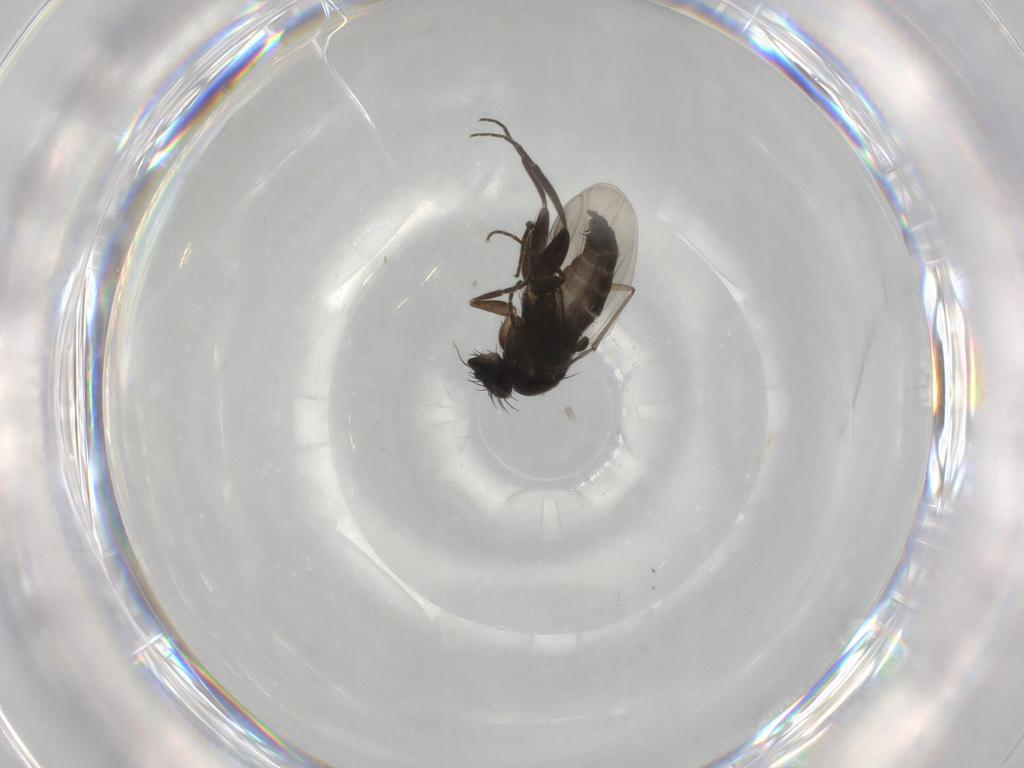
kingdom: Animalia
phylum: Arthropoda
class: Insecta
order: Diptera
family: Phoridae
